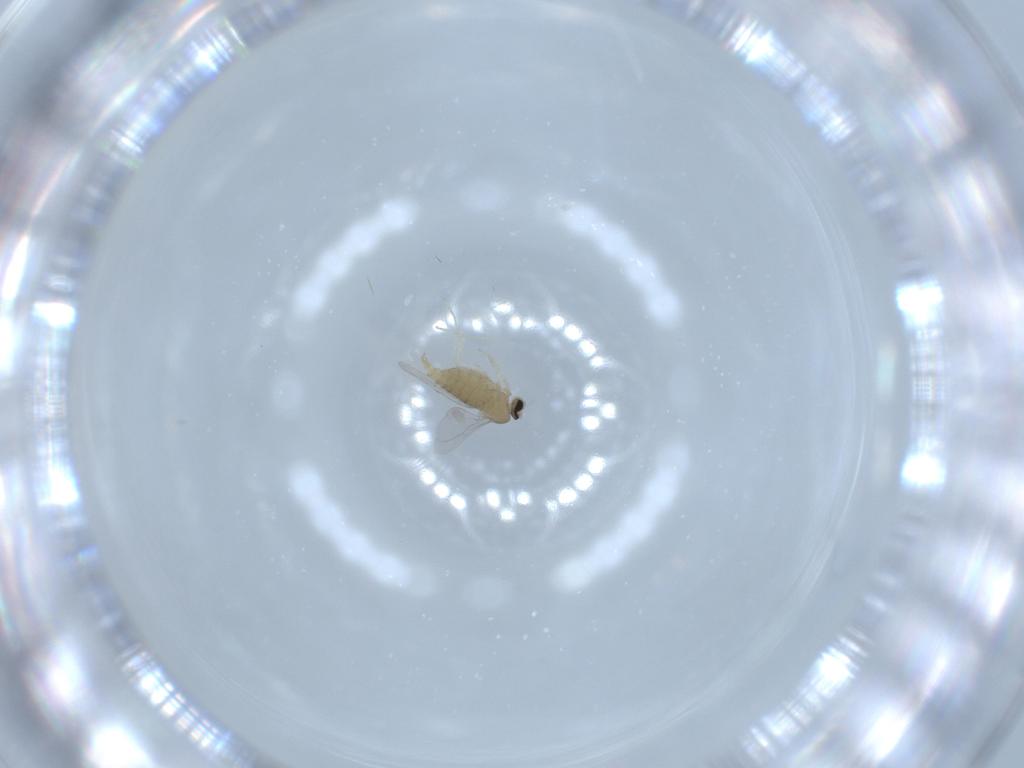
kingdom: Animalia
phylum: Arthropoda
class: Insecta
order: Diptera
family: Cecidomyiidae
